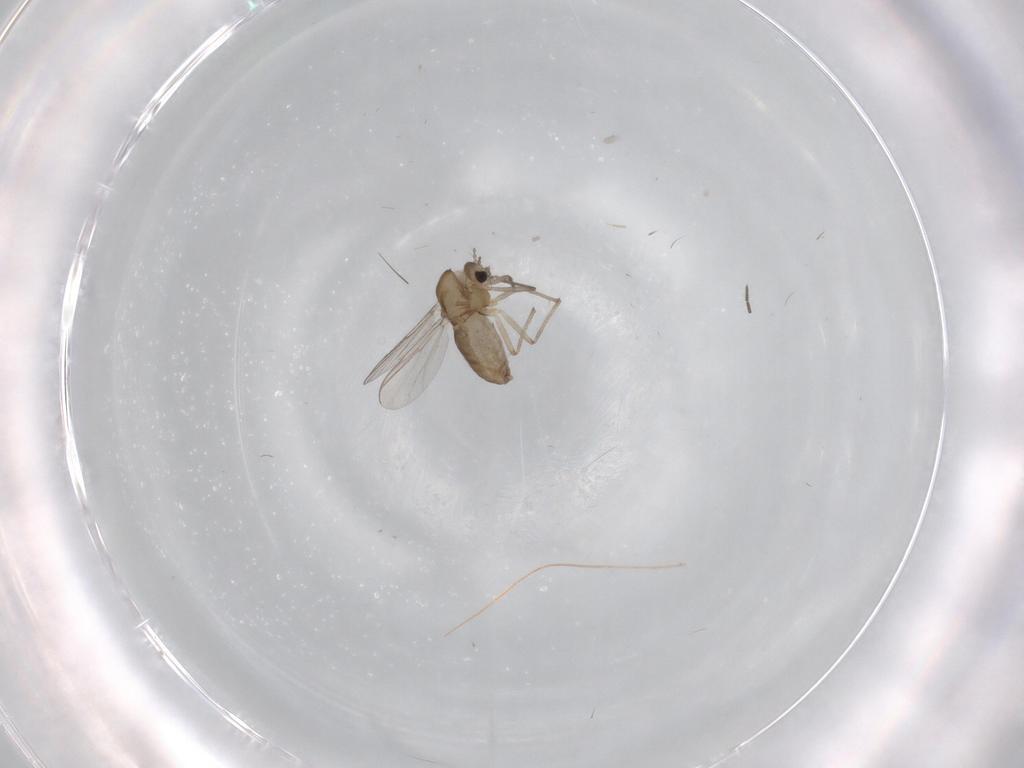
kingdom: Animalia
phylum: Arthropoda
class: Insecta
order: Diptera
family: Chironomidae
